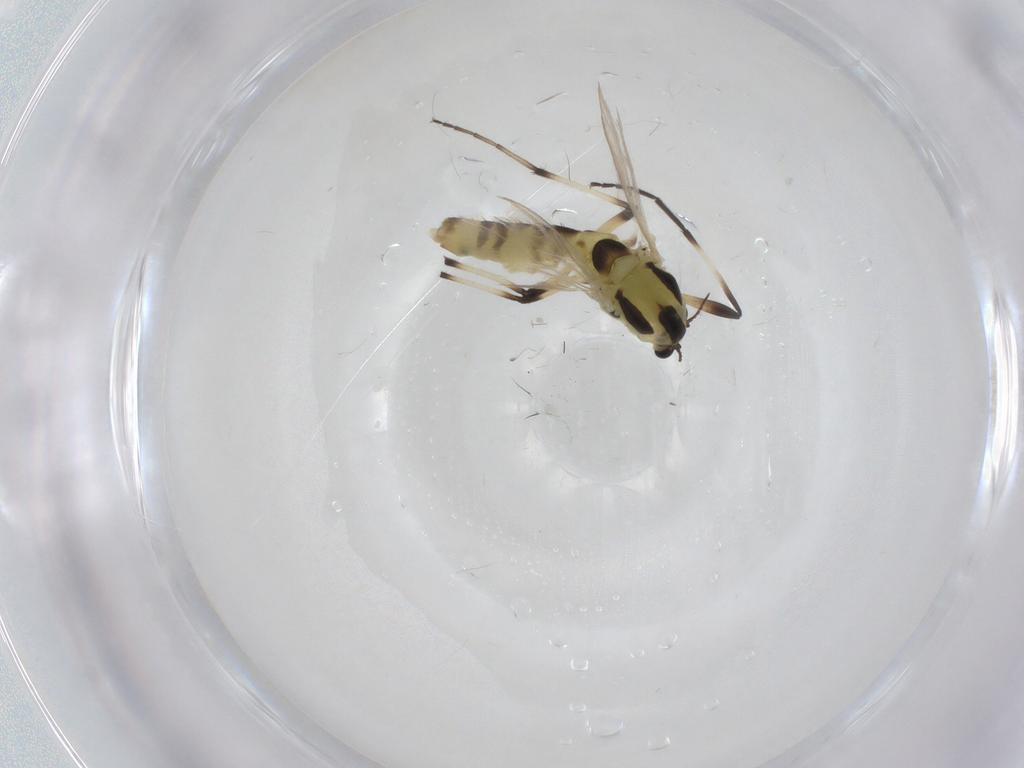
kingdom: Animalia
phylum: Arthropoda
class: Insecta
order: Diptera
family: Chironomidae
